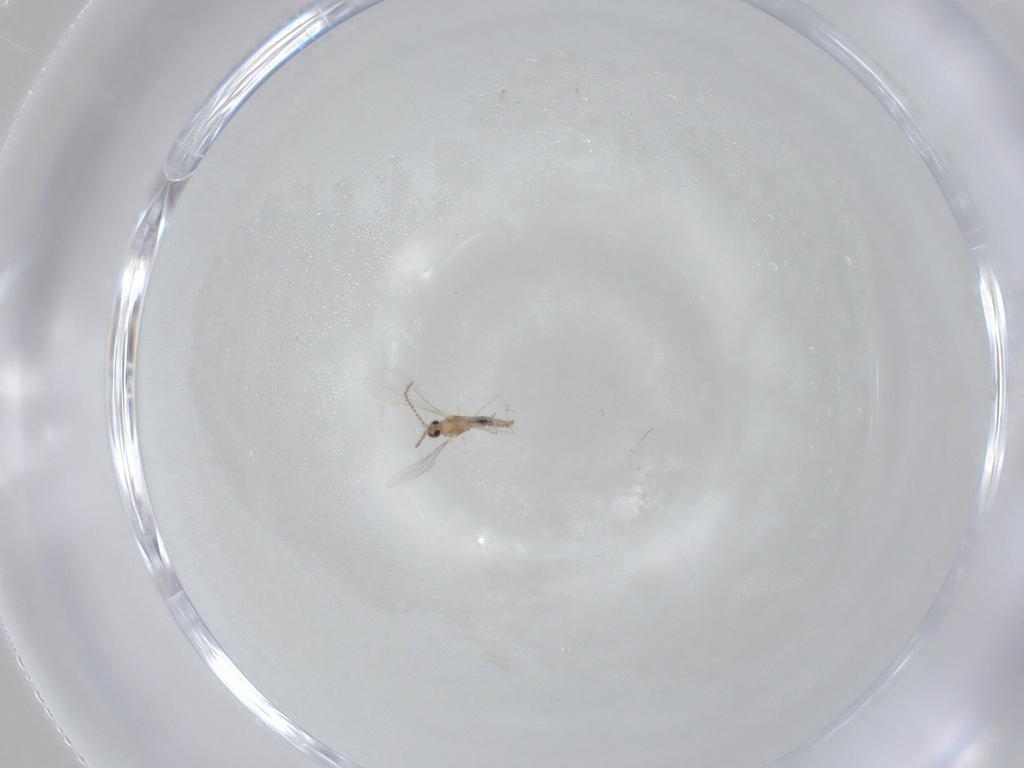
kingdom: Animalia
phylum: Arthropoda
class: Insecta
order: Diptera
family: Cecidomyiidae
